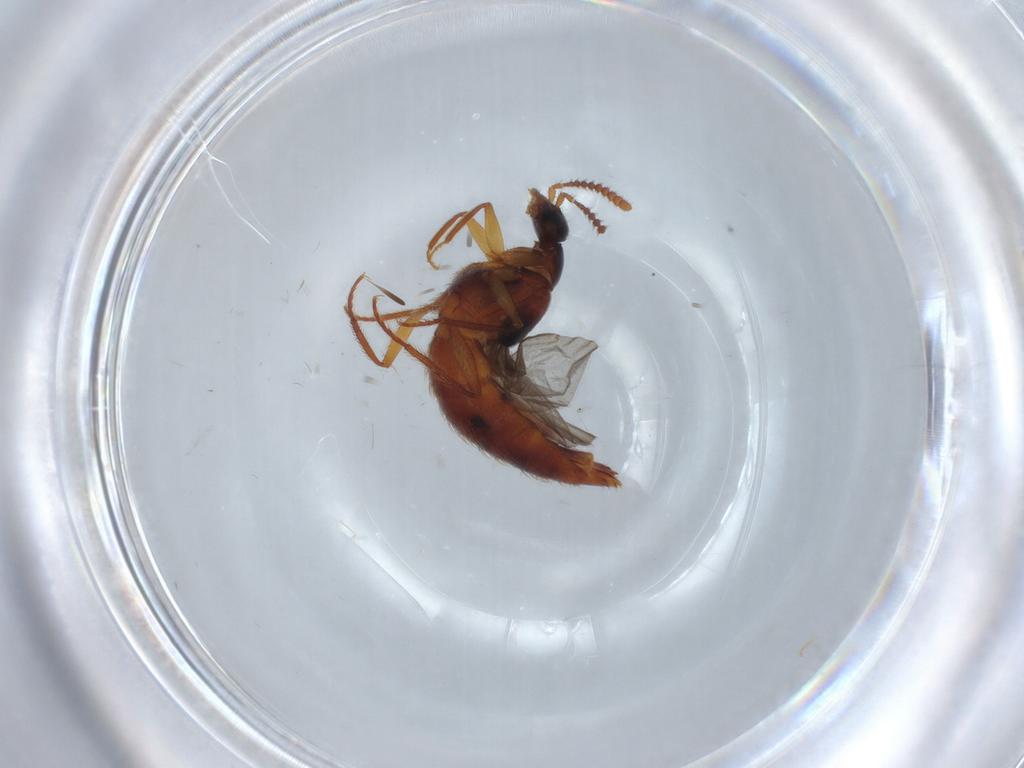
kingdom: Animalia
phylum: Arthropoda
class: Insecta
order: Coleoptera
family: Staphylinidae
